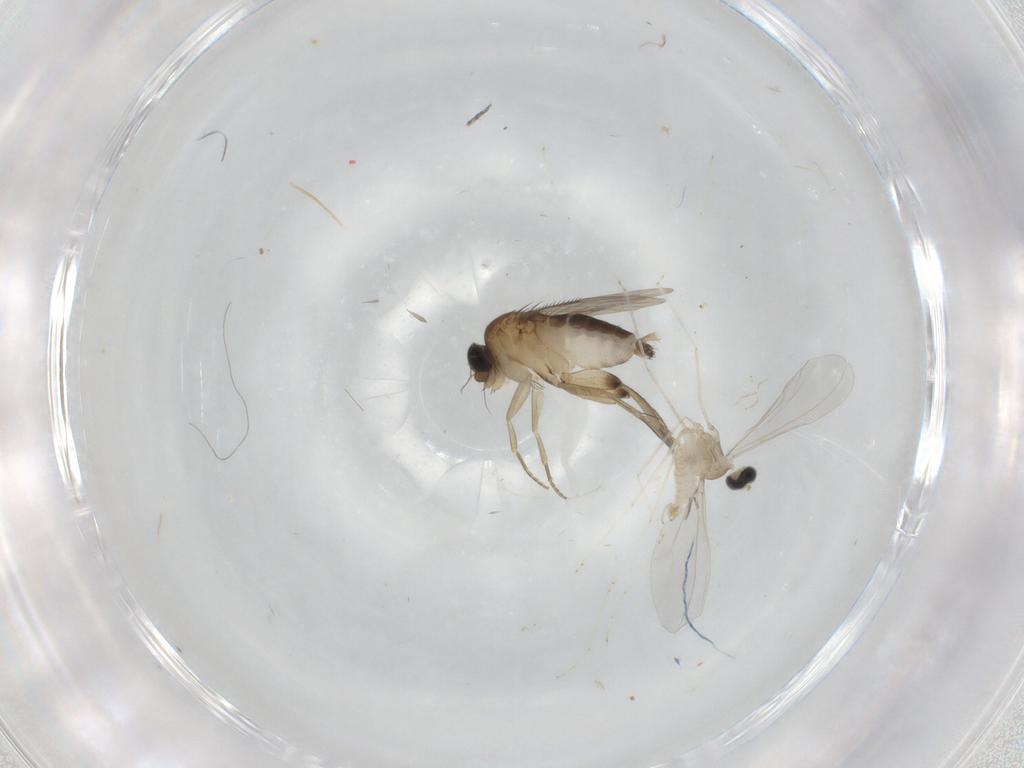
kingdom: Animalia
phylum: Arthropoda
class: Insecta
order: Diptera
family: Cecidomyiidae
